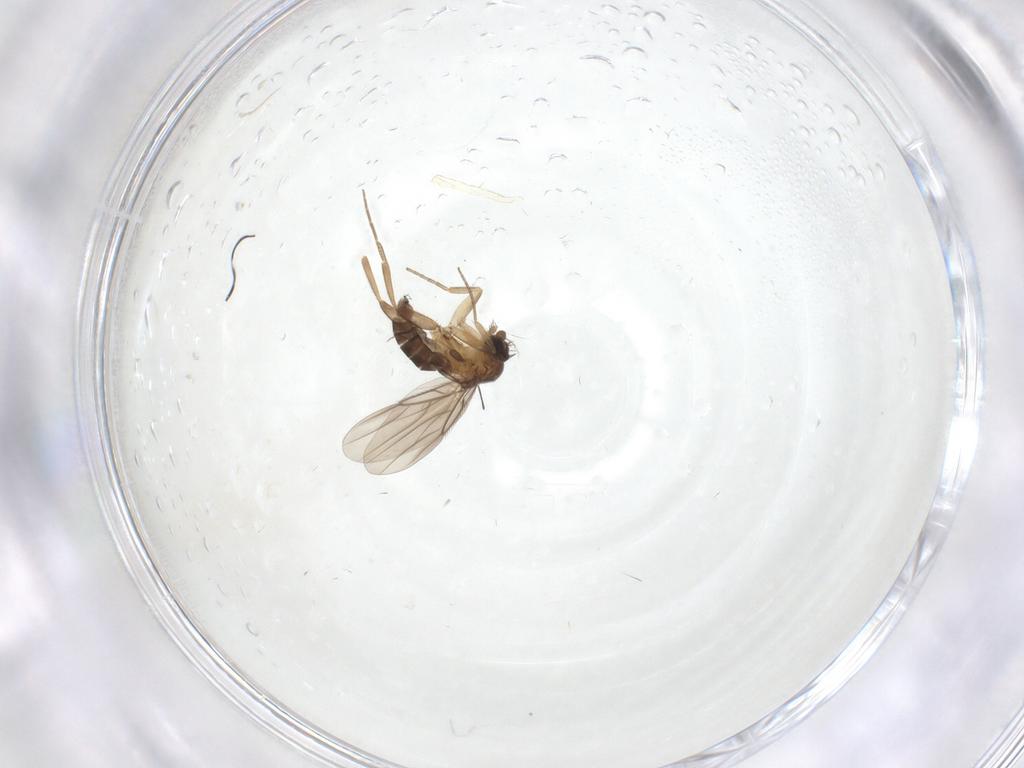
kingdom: Animalia
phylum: Arthropoda
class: Insecta
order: Diptera
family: Phoridae
